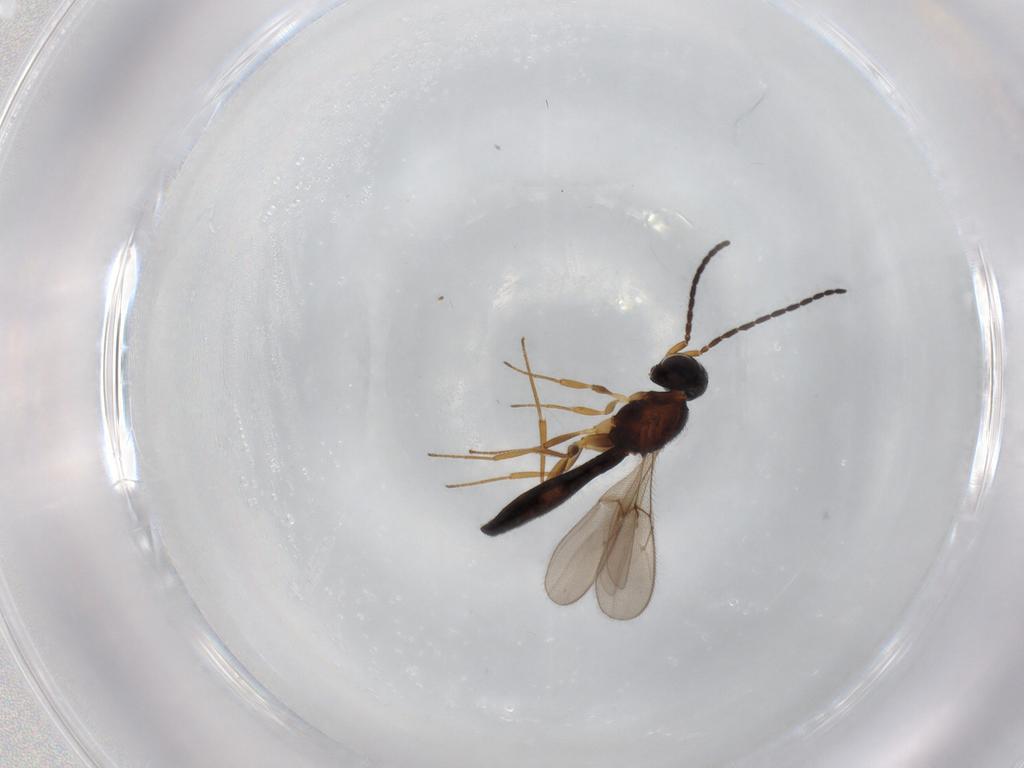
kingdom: Animalia
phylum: Arthropoda
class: Insecta
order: Hymenoptera
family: Scelionidae
